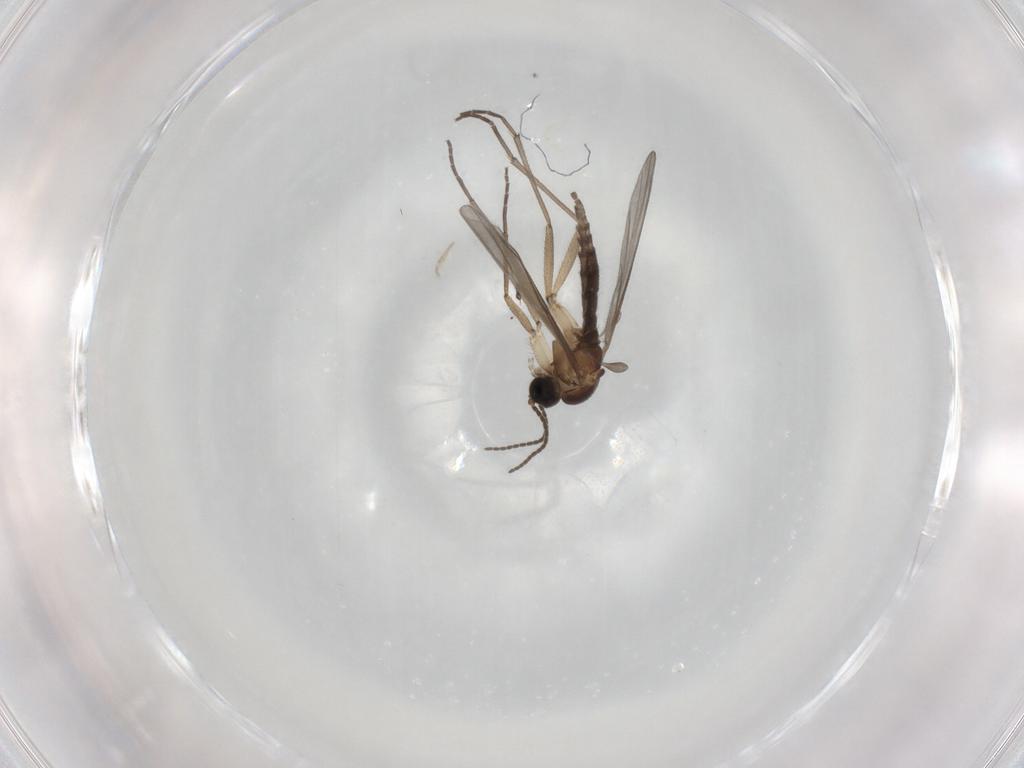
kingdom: Animalia
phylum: Arthropoda
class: Insecta
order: Diptera
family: Sciaridae
